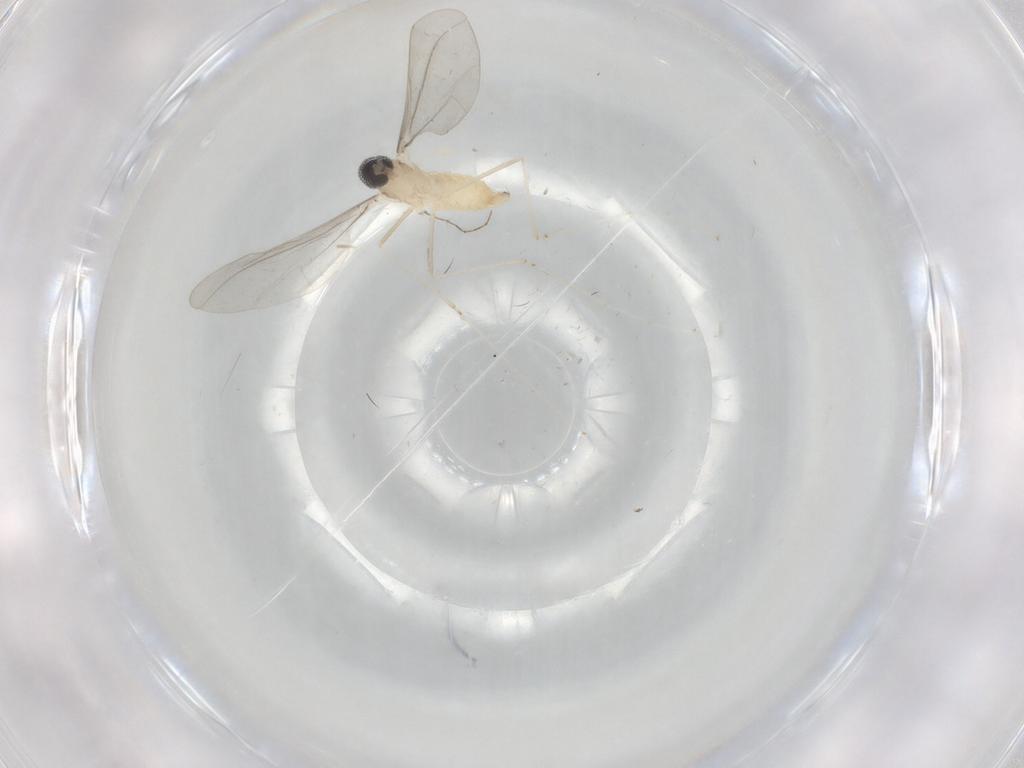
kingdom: Animalia
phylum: Arthropoda
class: Insecta
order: Diptera
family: Cecidomyiidae
